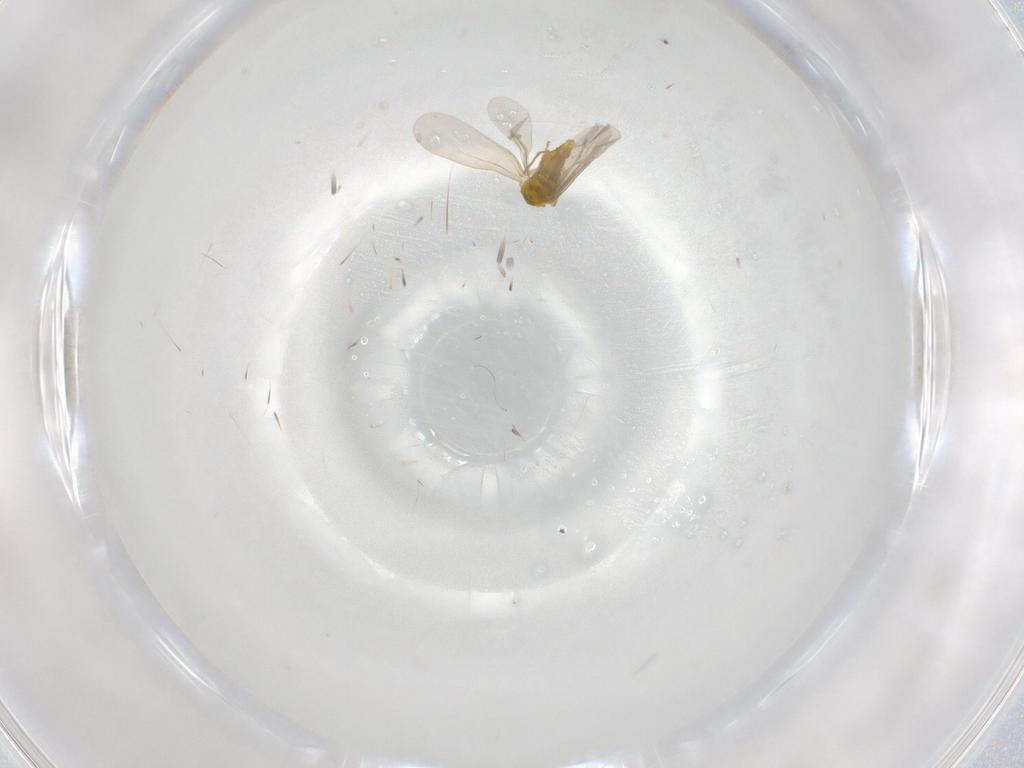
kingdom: Animalia
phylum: Arthropoda
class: Insecta
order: Hemiptera
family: Aleyrodidae
